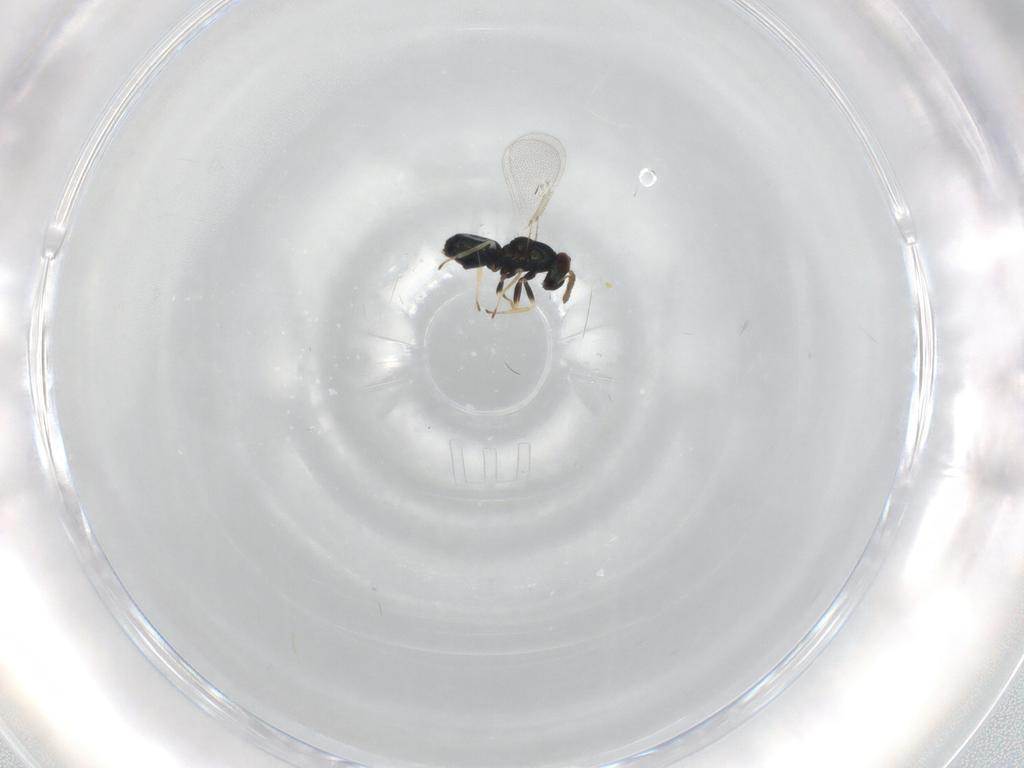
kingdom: Animalia
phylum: Arthropoda
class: Insecta
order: Hymenoptera
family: Eulophidae
